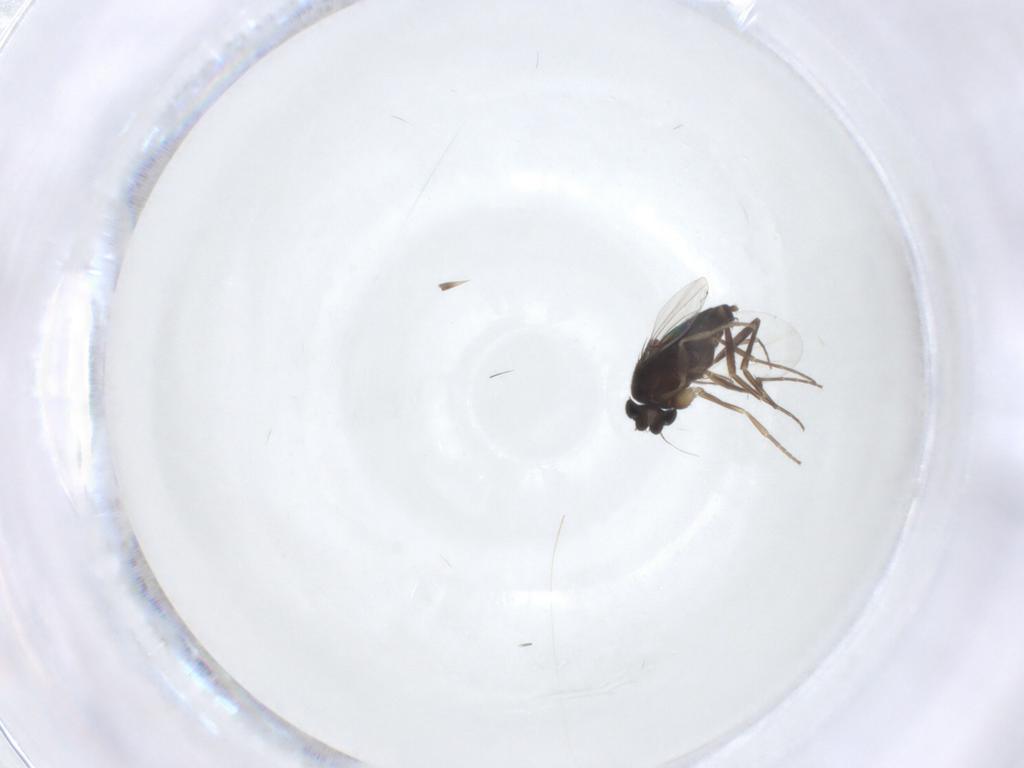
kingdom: Animalia
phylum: Arthropoda
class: Insecta
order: Diptera
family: Phoridae
